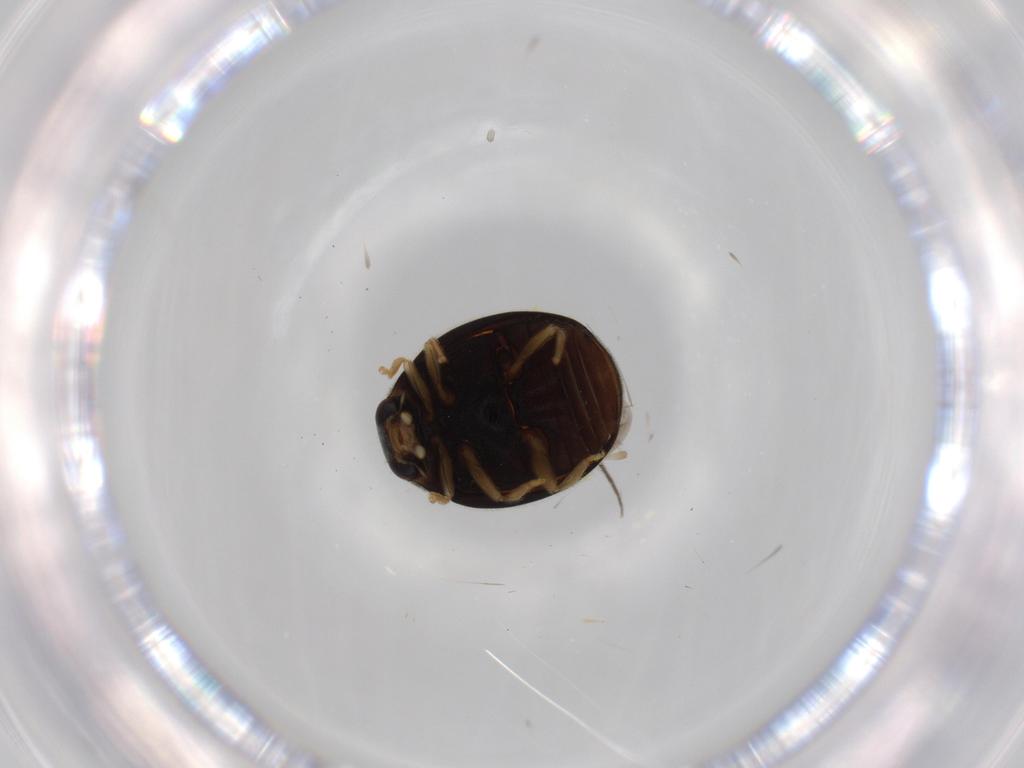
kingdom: Animalia
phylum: Arthropoda
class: Insecta
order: Coleoptera
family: Coccinellidae
